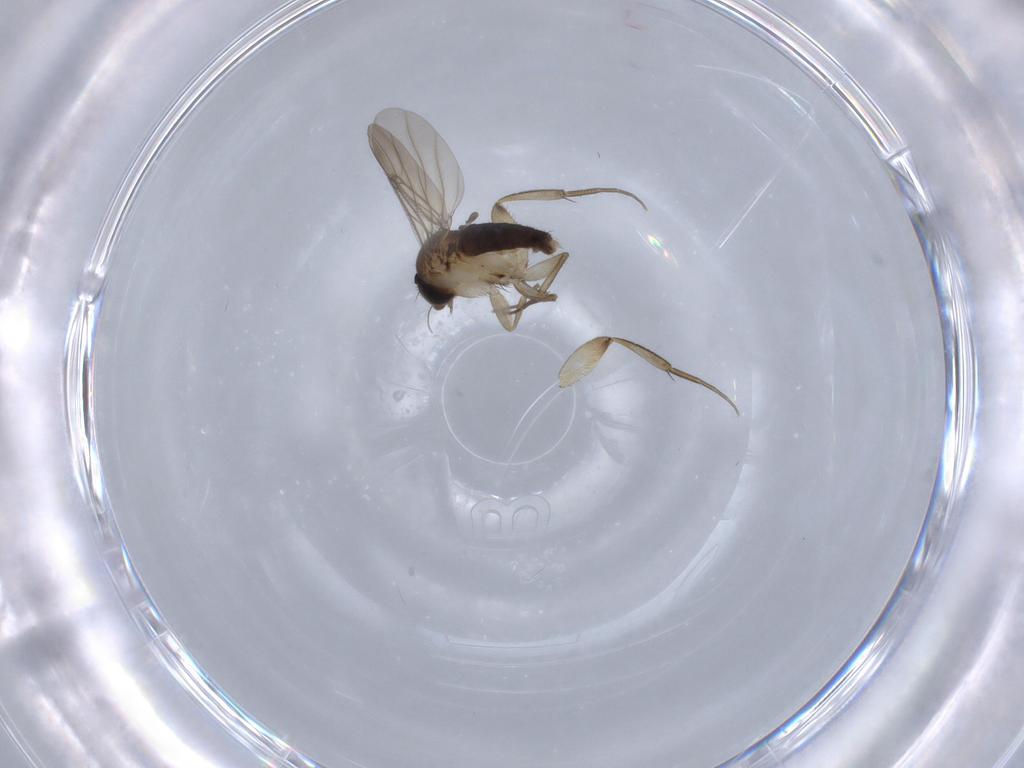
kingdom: Animalia
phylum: Arthropoda
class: Insecta
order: Diptera
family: Phoridae
